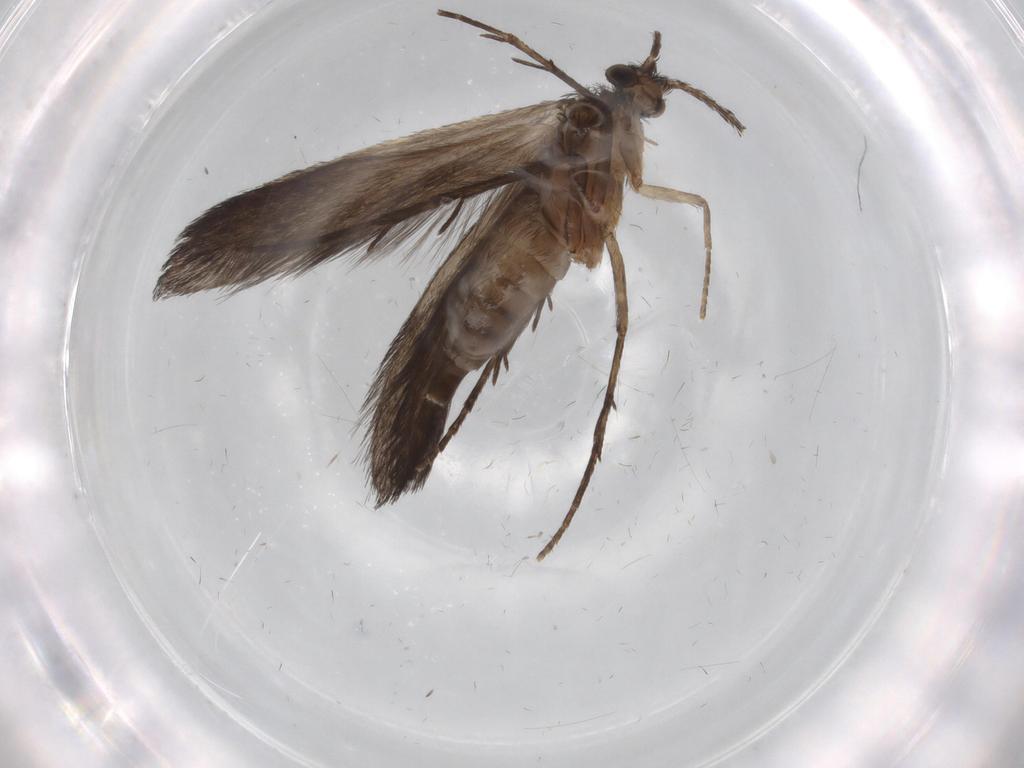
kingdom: Animalia
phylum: Arthropoda
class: Insecta
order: Trichoptera
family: Xiphocentronidae
